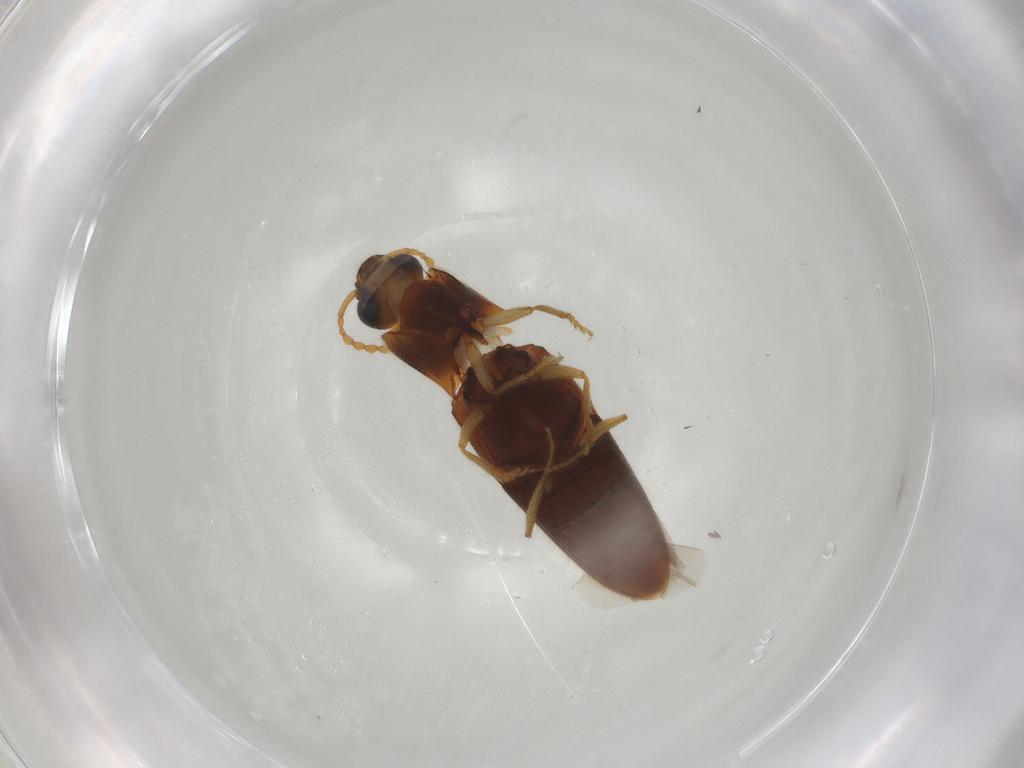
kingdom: Animalia
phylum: Arthropoda
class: Insecta
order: Coleoptera
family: Elateridae
